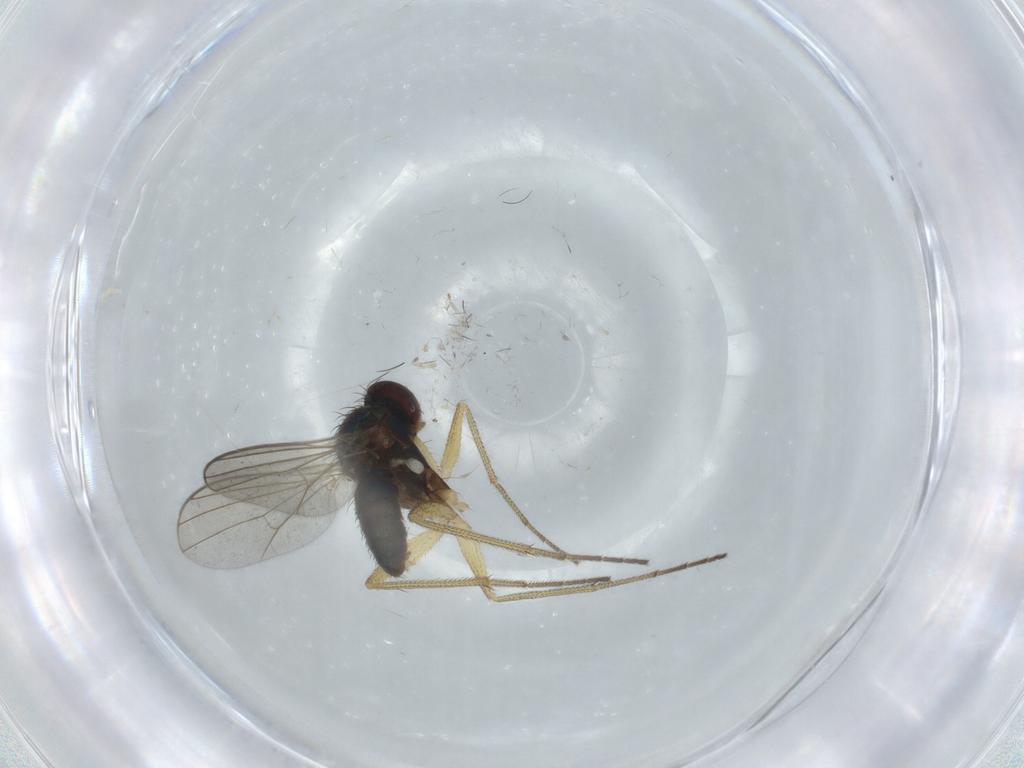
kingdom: Animalia
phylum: Arthropoda
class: Insecta
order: Diptera
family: Dolichopodidae
